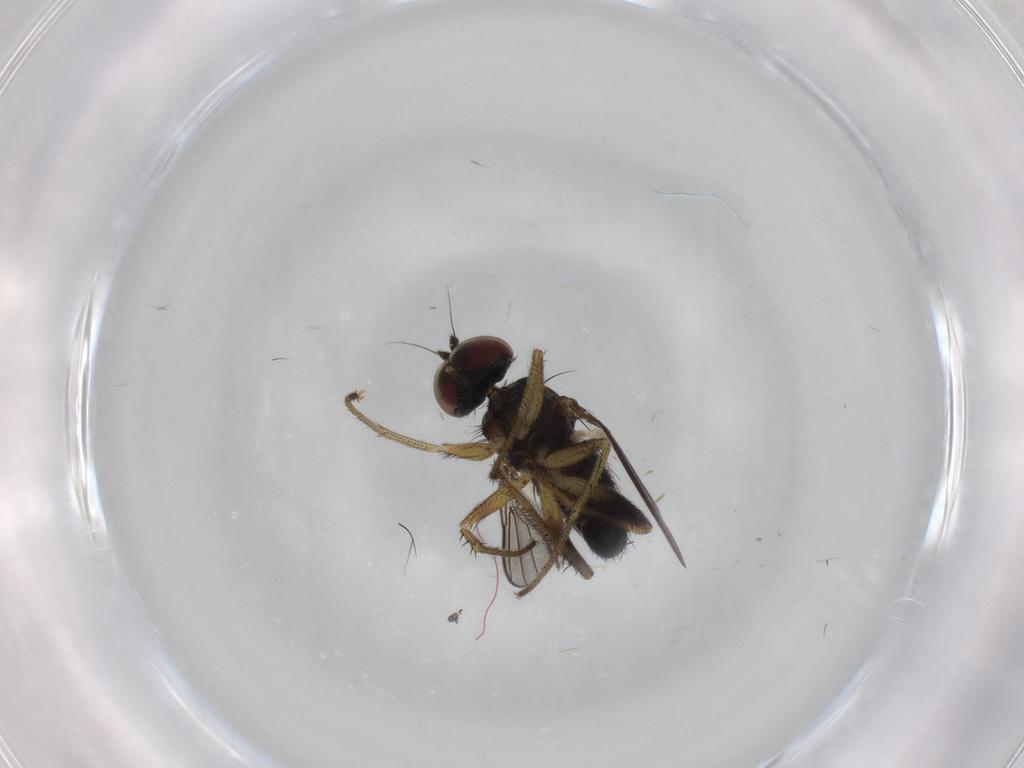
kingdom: Animalia
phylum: Arthropoda
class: Insecta
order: Diptera
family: Dolichopodidae
